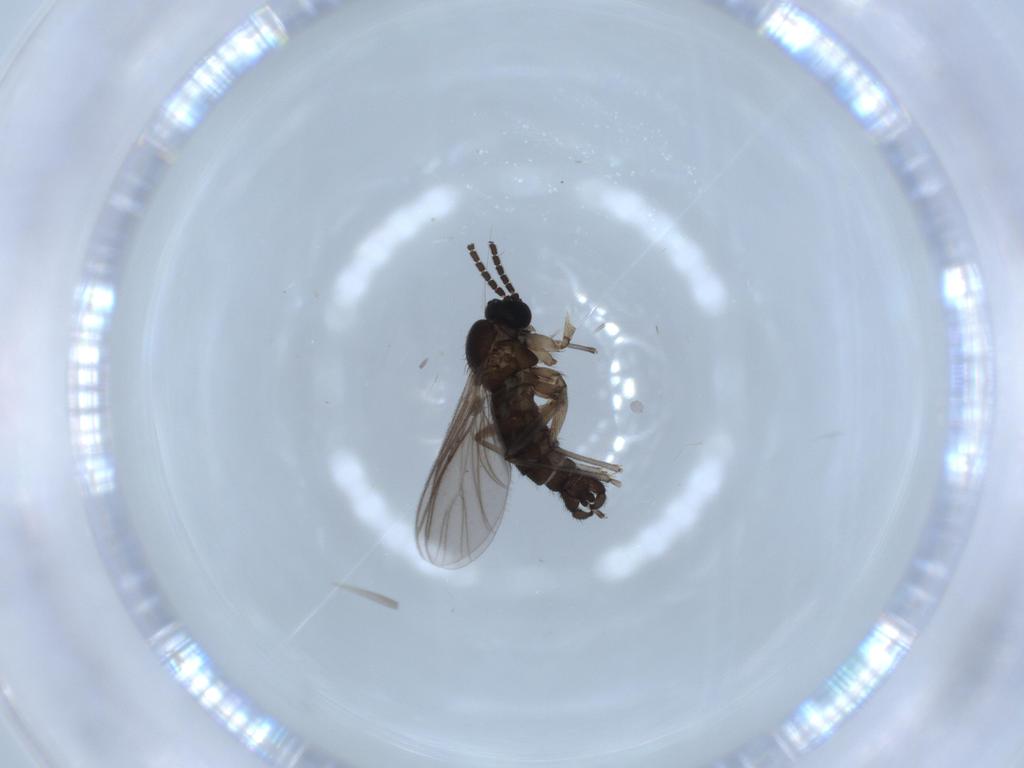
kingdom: Animalia
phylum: Arthropoda
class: Insecta
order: Diptera
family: Sciaridae
